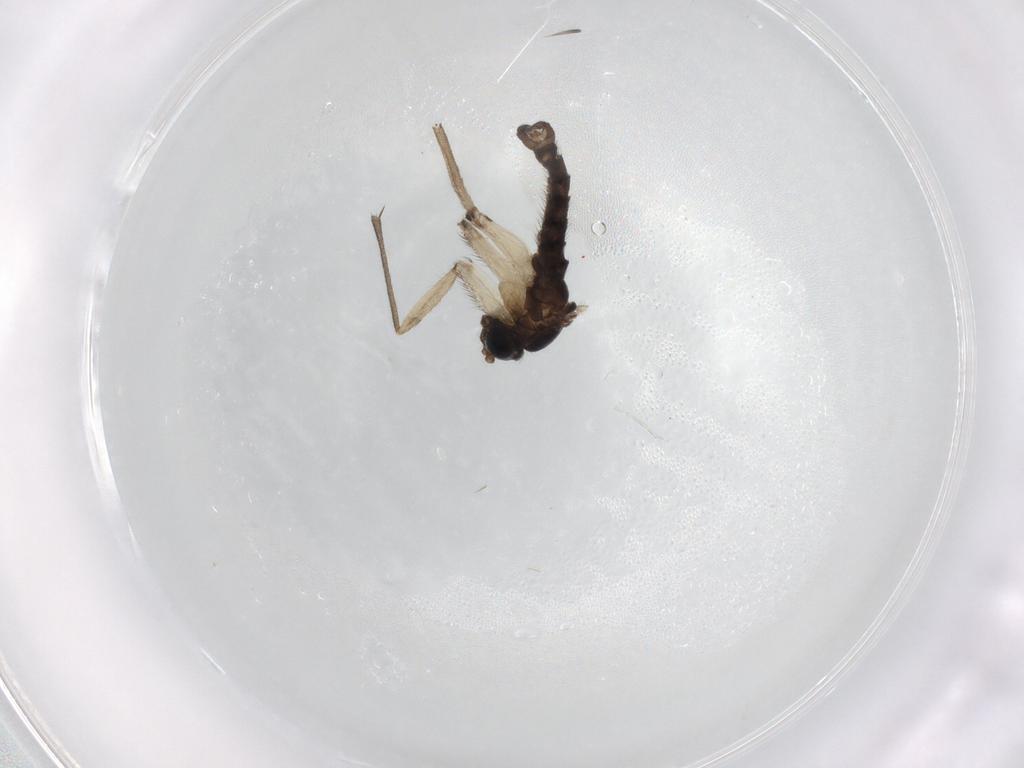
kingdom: Animalia
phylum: Arthropoda
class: Insecta
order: Diptera
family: Sciaridae
